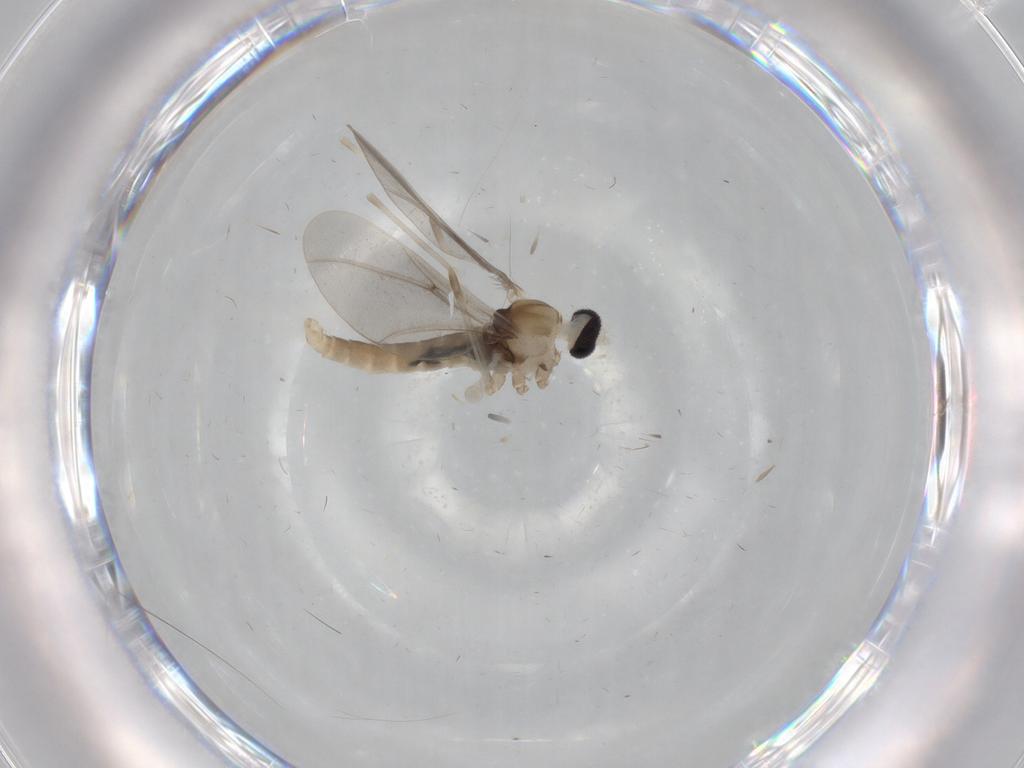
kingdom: Animalia
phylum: Arthropoda
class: Insecta
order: Diptera
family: Cecidomyiidae
